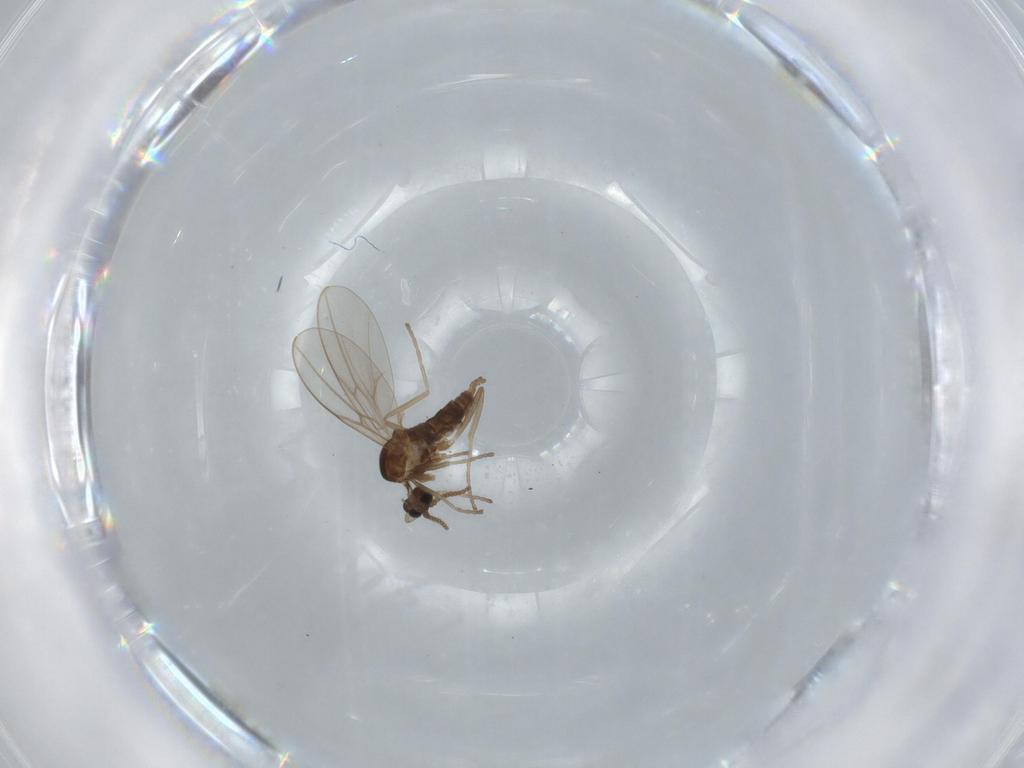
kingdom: Animalia
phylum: Arthropoda
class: Insecta
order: Diptera
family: Cecidomyiidae
